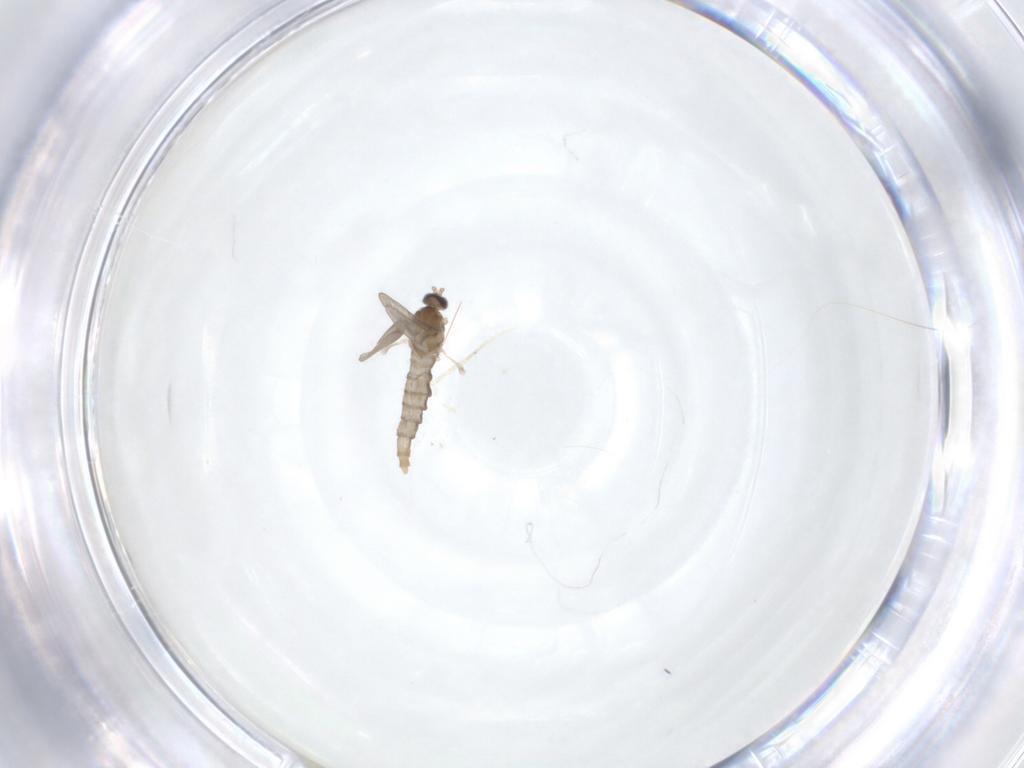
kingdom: Animalia
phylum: Arthropoda
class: Insecta
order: Diptera
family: Cecidomyiidae
